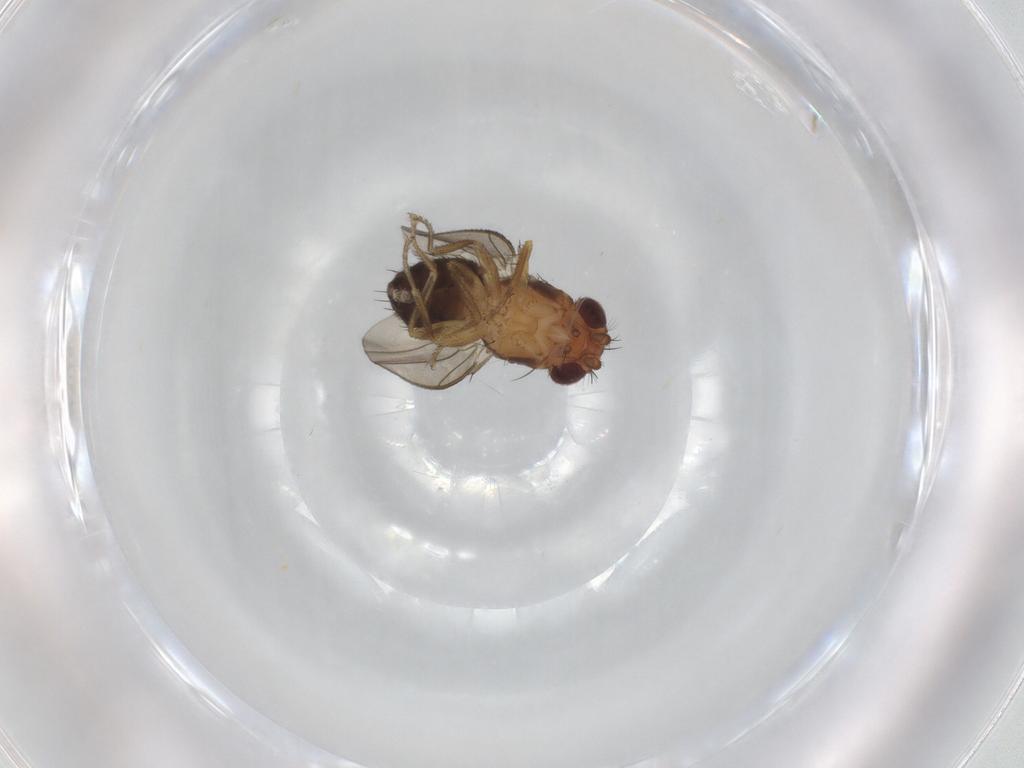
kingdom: Animalia
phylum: Arthropoda
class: Insecta
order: Diptera
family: Drosophilidae
